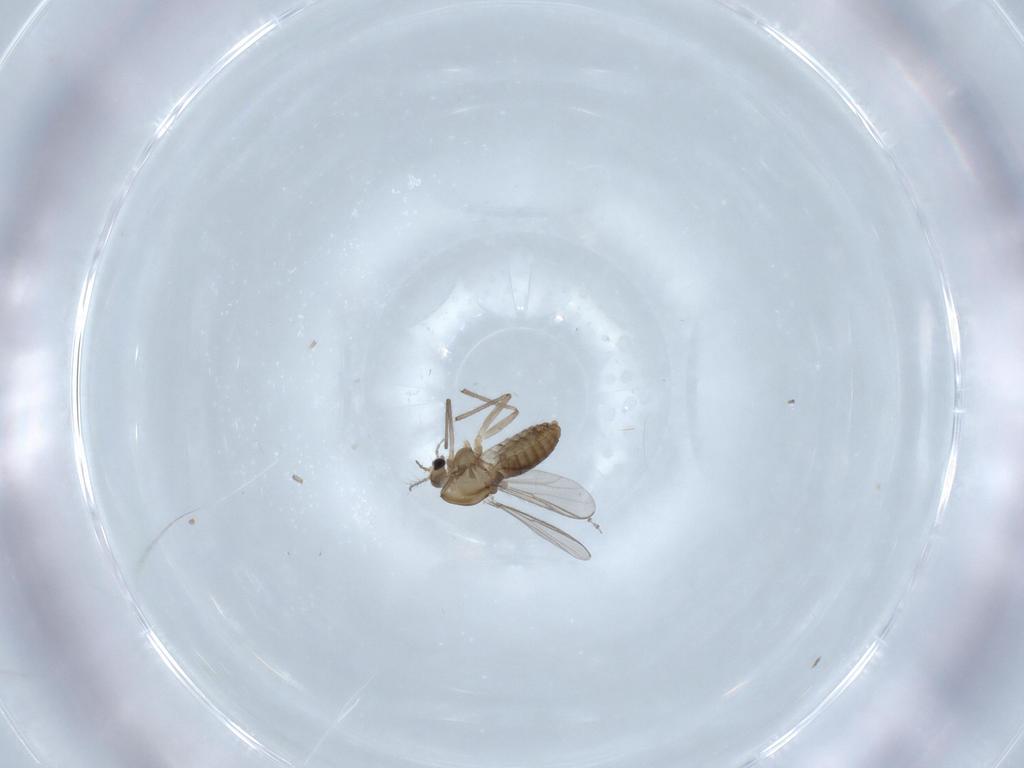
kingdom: Animalia
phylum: Arthropoda
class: Insecta
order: Diptera
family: Chironomidae
